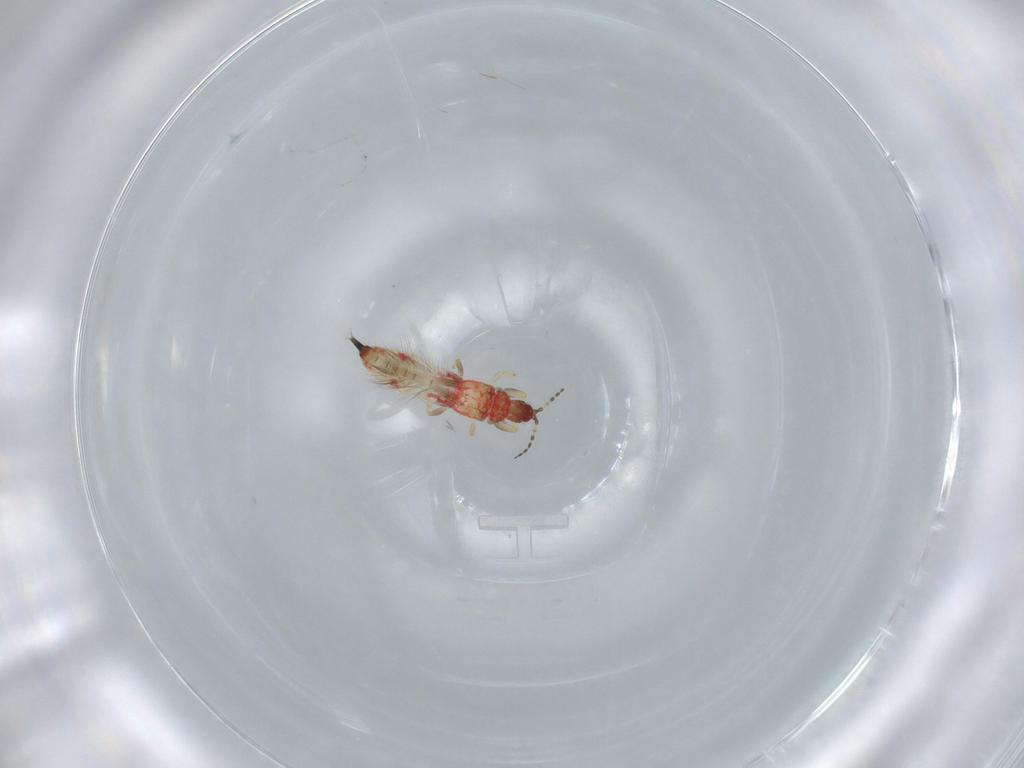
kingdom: Animalia
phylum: Arthropoda
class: Insecta
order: Thysanoptera
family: Phlaeothripidae
